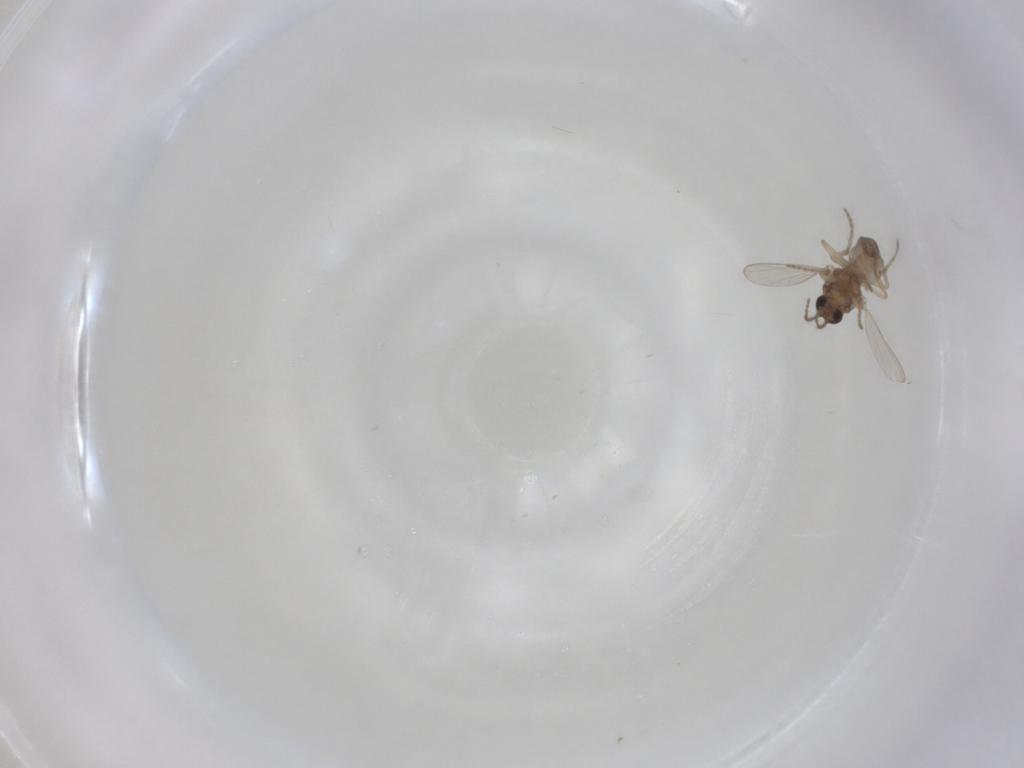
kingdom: Animalia
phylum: Arthropoda
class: Insecta
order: Diptera
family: Ceratopogonidae
